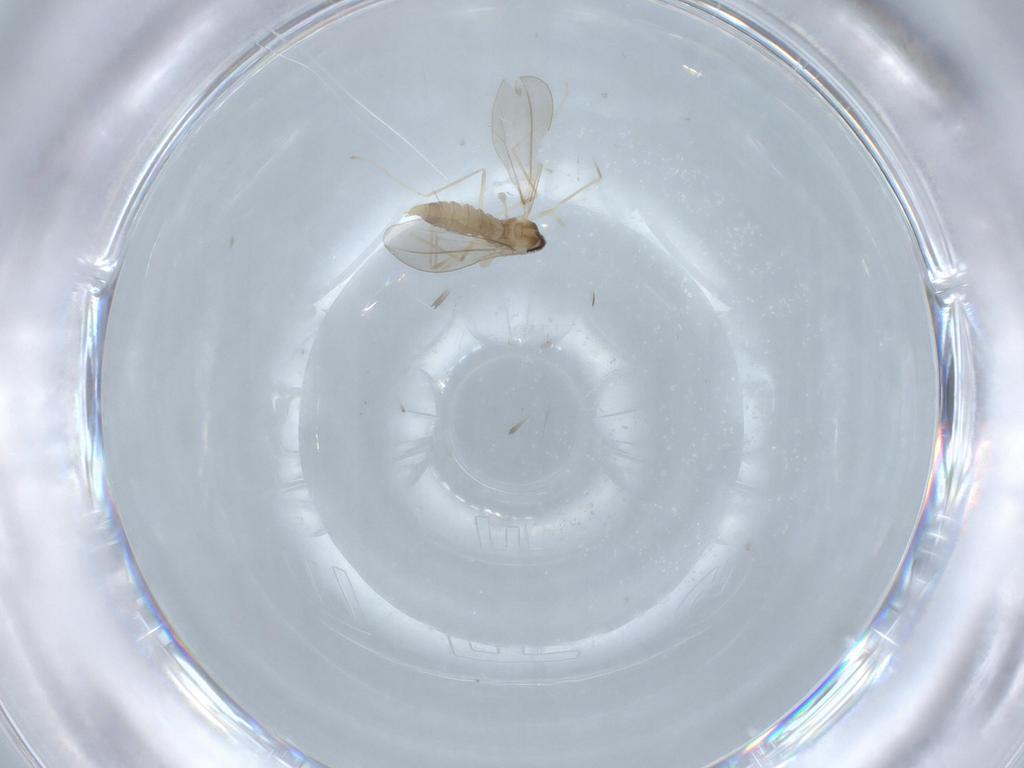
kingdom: Animalia
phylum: Arthropoda
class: Insecta
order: Diptera
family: Cecidomyiidae
